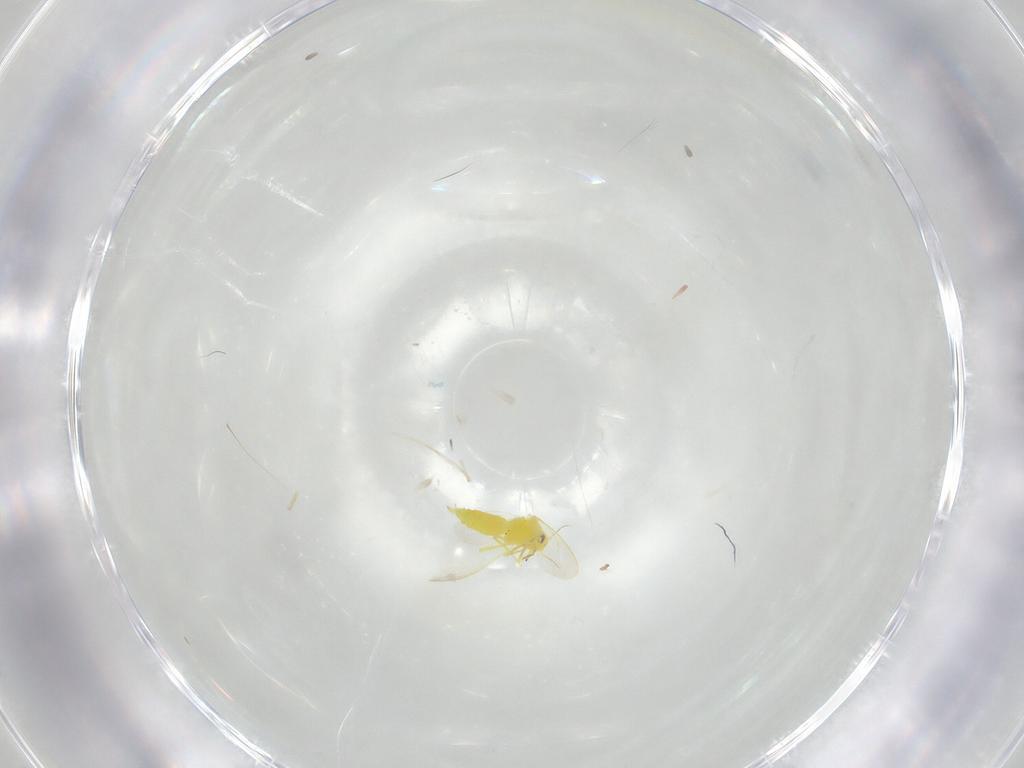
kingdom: Animalia
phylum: Arthropoda
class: Insecta
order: Hemiptera
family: Aleyrodidae
